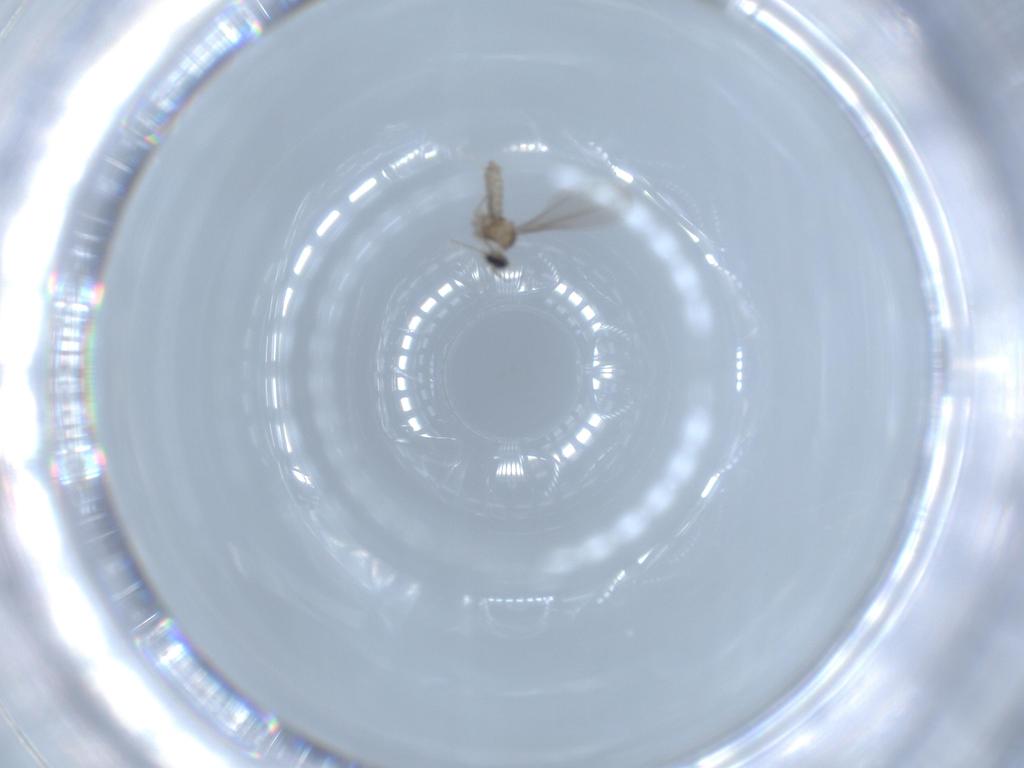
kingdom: Animalia
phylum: Arthropoda
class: Insecta
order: Diptera
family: Cecidomyiidae
